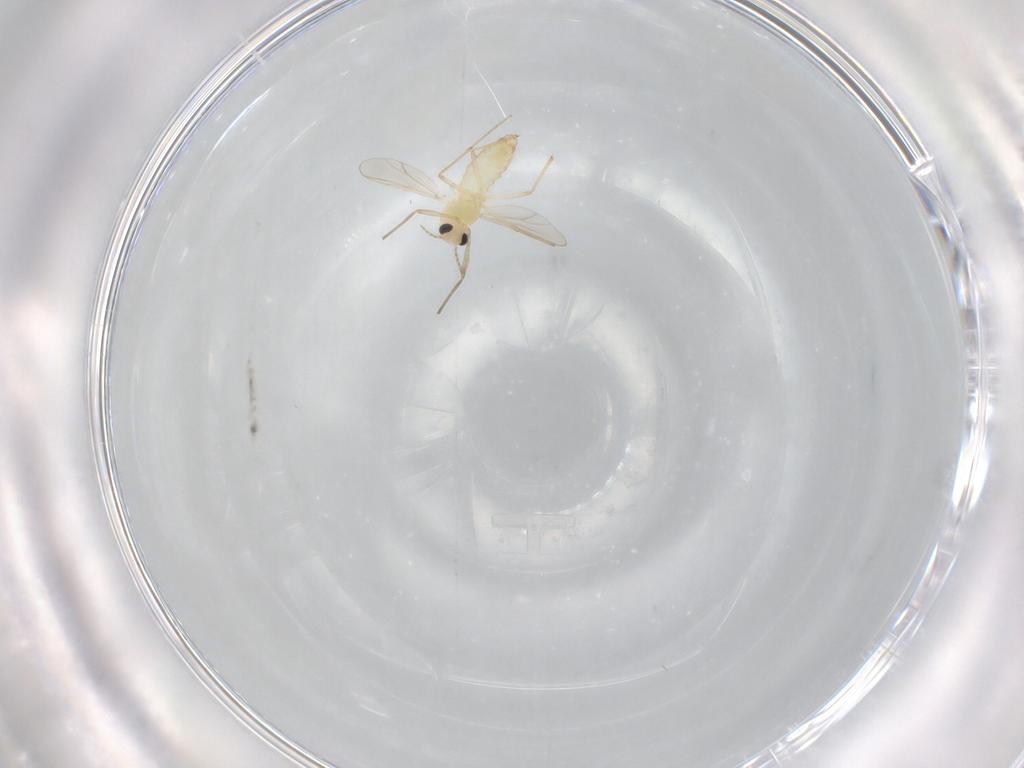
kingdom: Animalia
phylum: Arthropoda
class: Insecta
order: Diptera
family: Chironomidae
